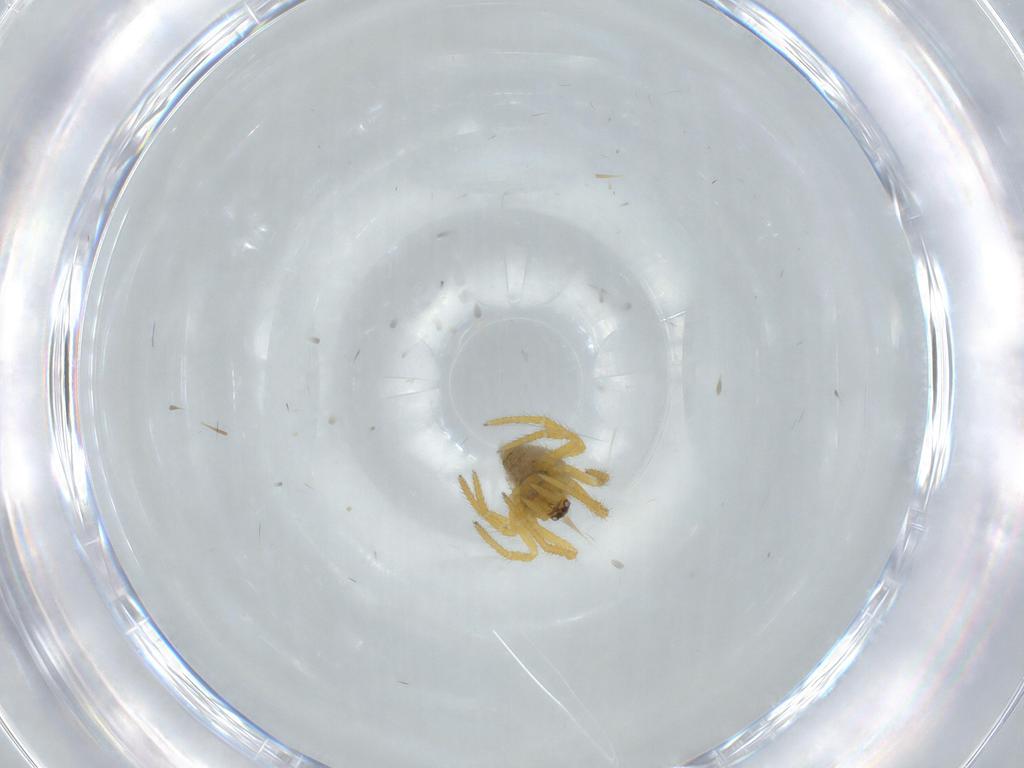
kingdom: Animalia
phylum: Arthropoda
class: Arachnida
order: Araneae
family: Theridiidae
